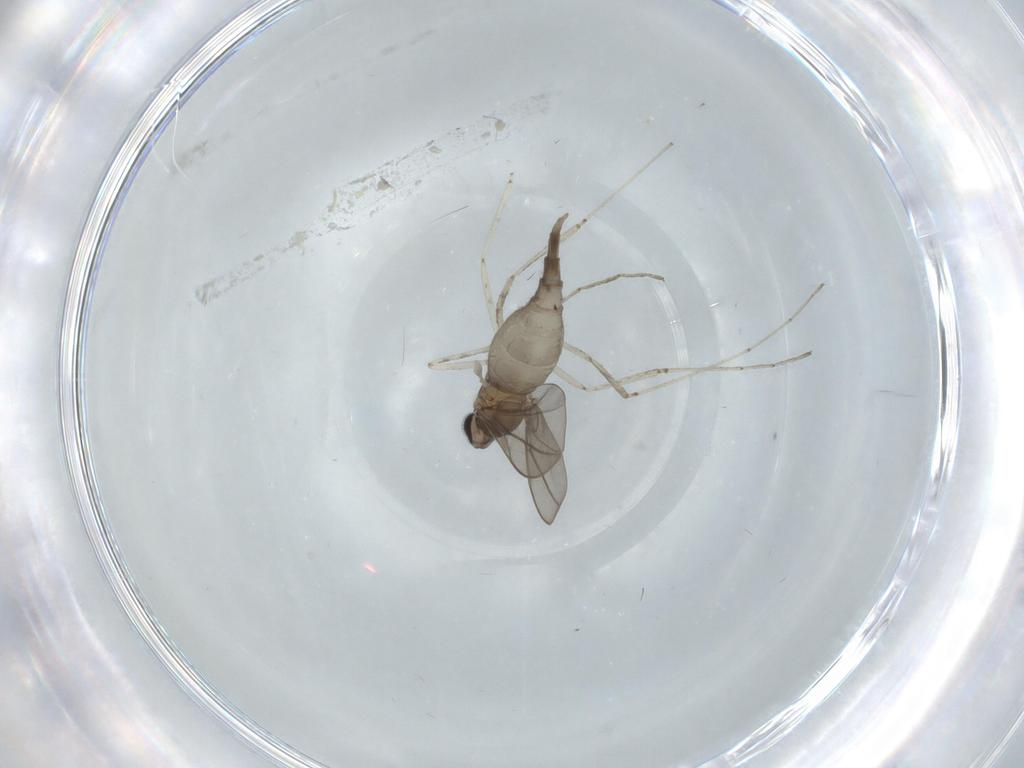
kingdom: Animalia
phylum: Arthropoda
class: Insecta
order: Diptera
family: Cecidomyiidae
